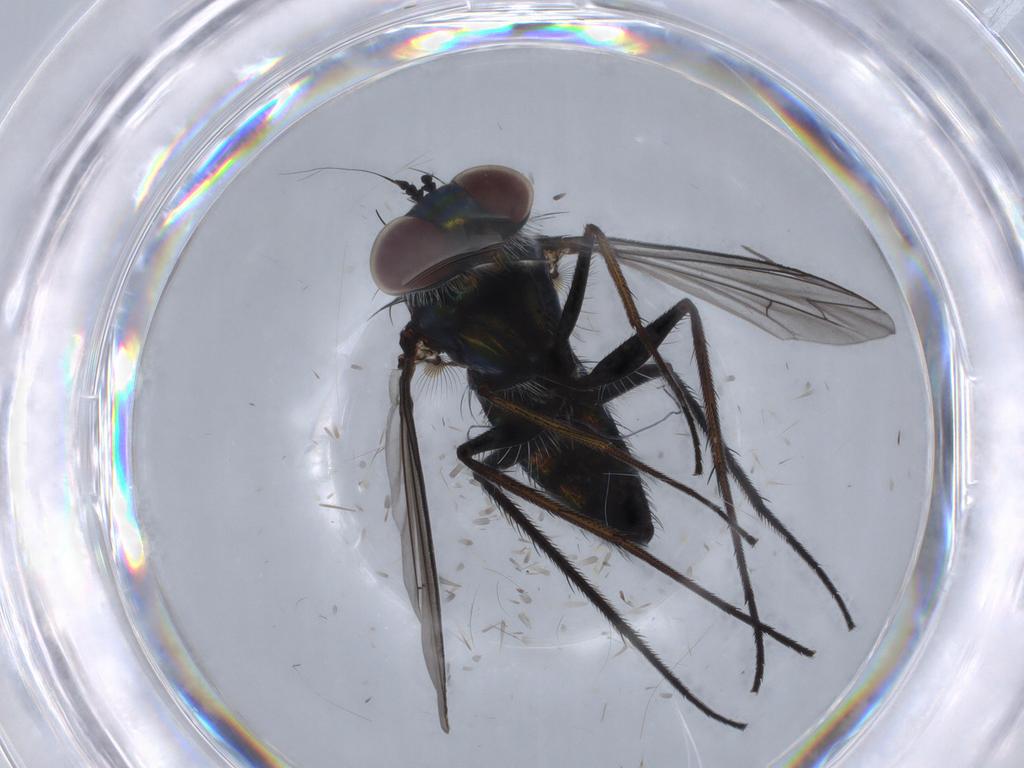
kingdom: Animalia
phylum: Arthropoda
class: Insecta
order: Diptera
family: Dolichopodidae
